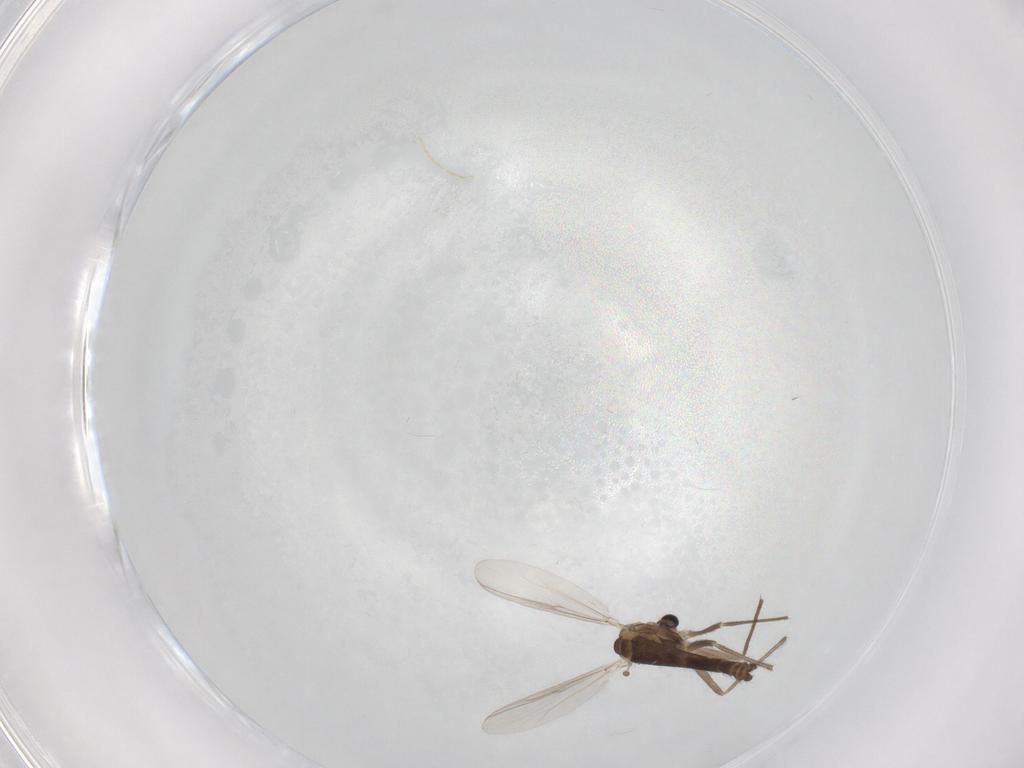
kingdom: Animalia
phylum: Arthropoda
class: Insecta
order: Diptera
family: Chironomidae
